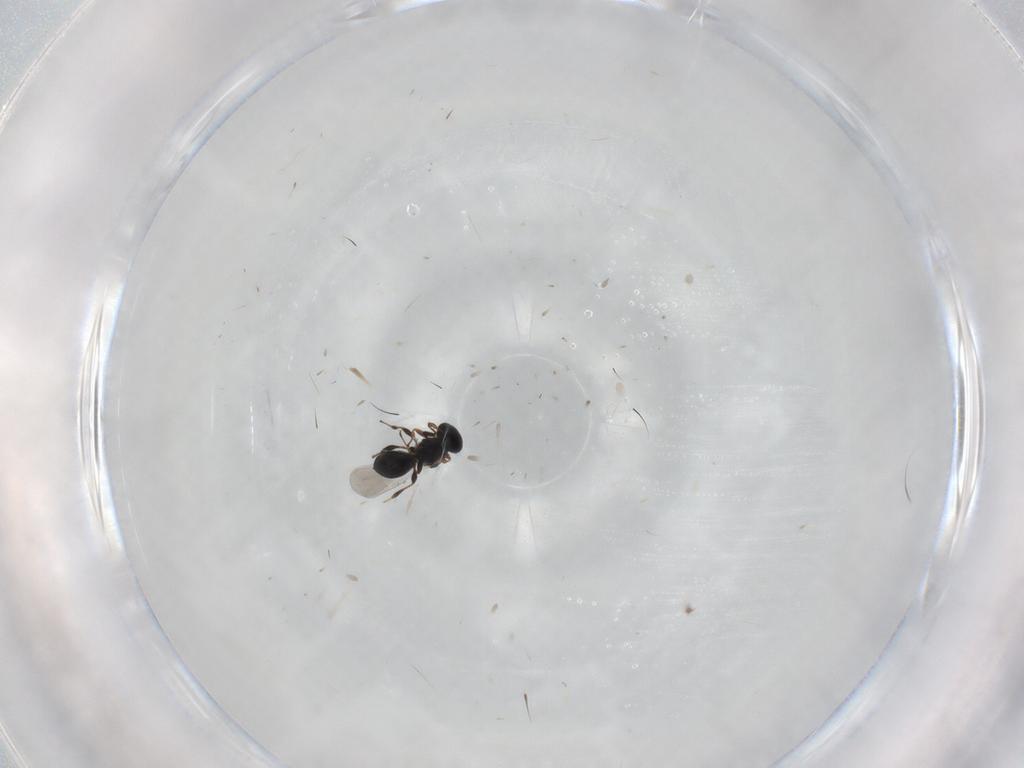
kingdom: Animalia
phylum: Arthropoda
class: Insecta
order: Hymenoptera
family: Platygastridae
